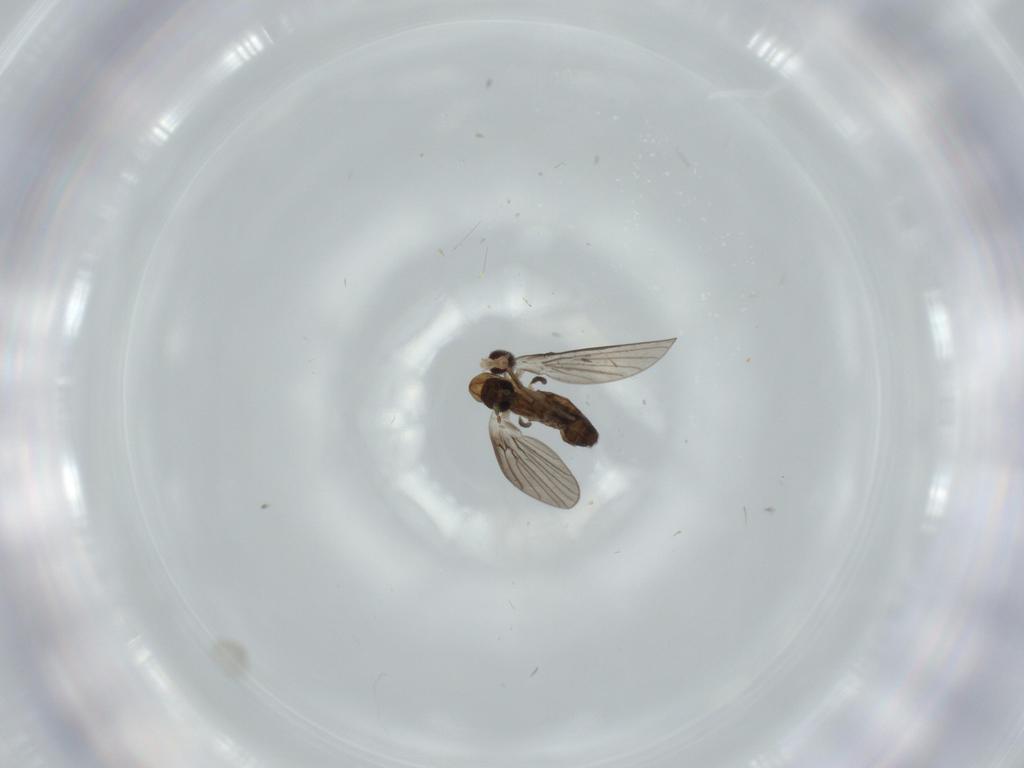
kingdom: Animalia
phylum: Arthropoda
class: Insecta
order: Diptera
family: Cecidomyiidae
